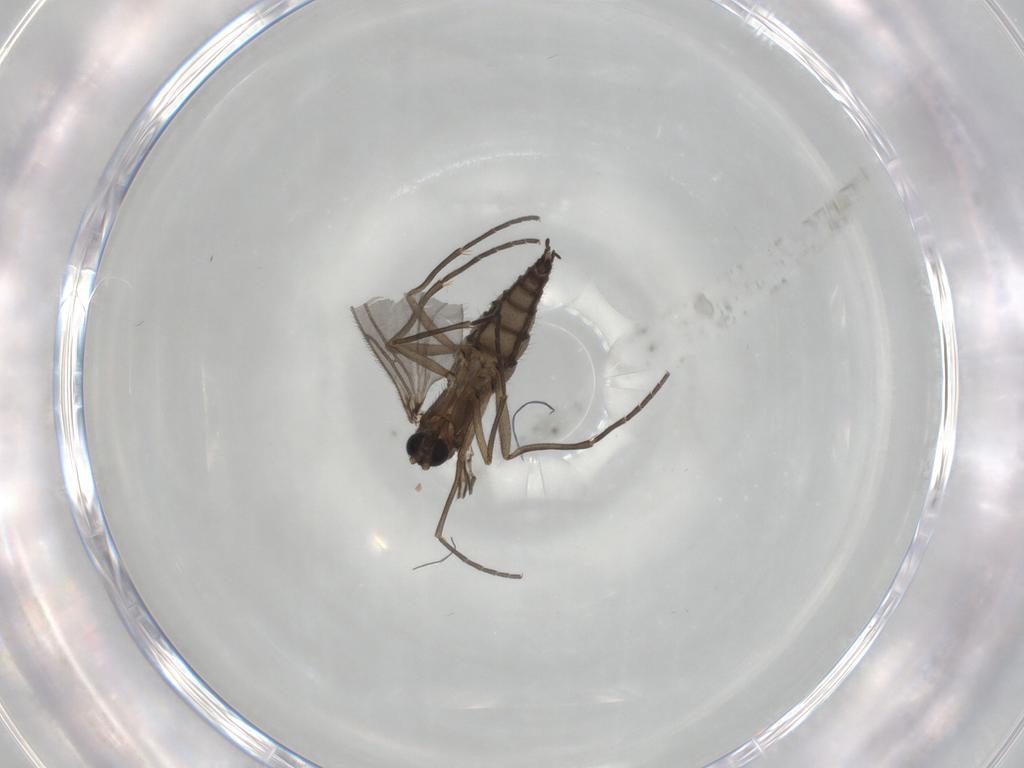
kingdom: Animalia
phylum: Arthropoda
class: Insecta
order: Diptera
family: Sciaridae
